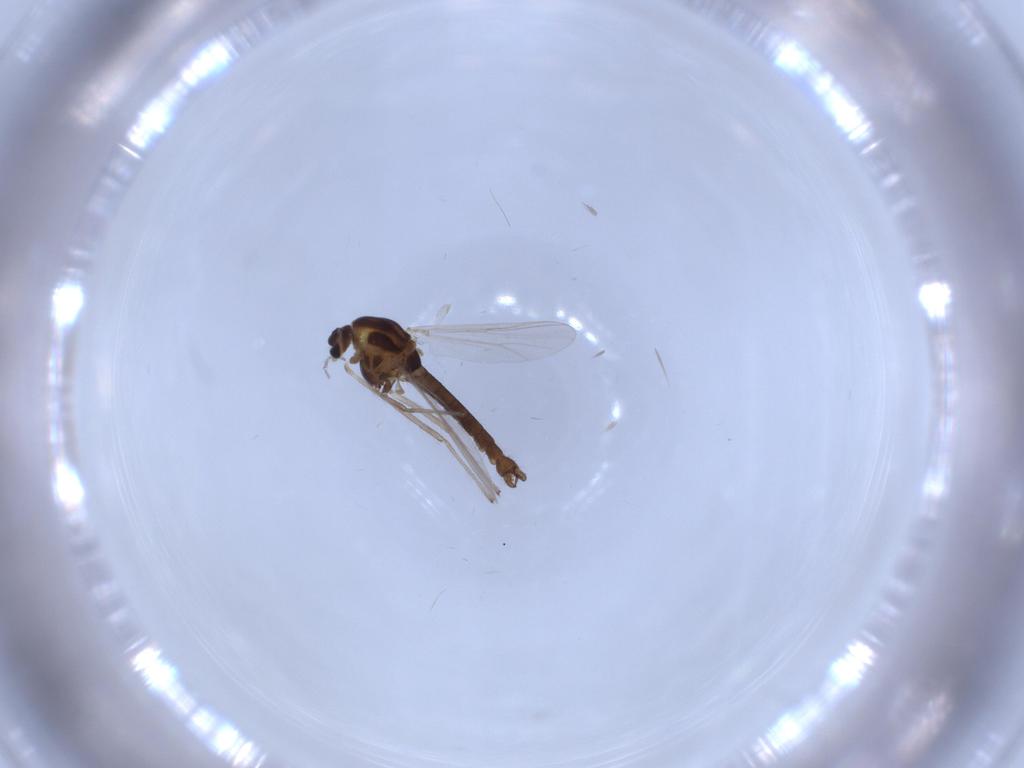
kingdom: Animalia
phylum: Arthropoda
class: Insecta
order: Diptera
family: Chironomidae
